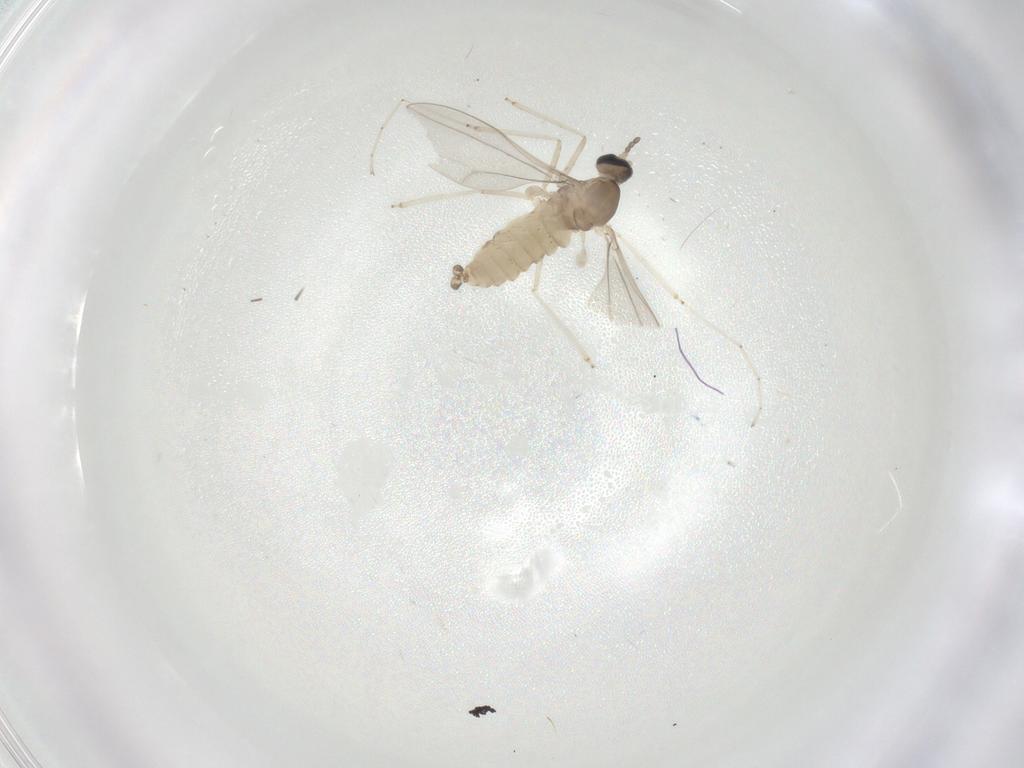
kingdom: Animalia
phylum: Arthropoda
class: Insecta
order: Diptera
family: Cecidomyiidae
